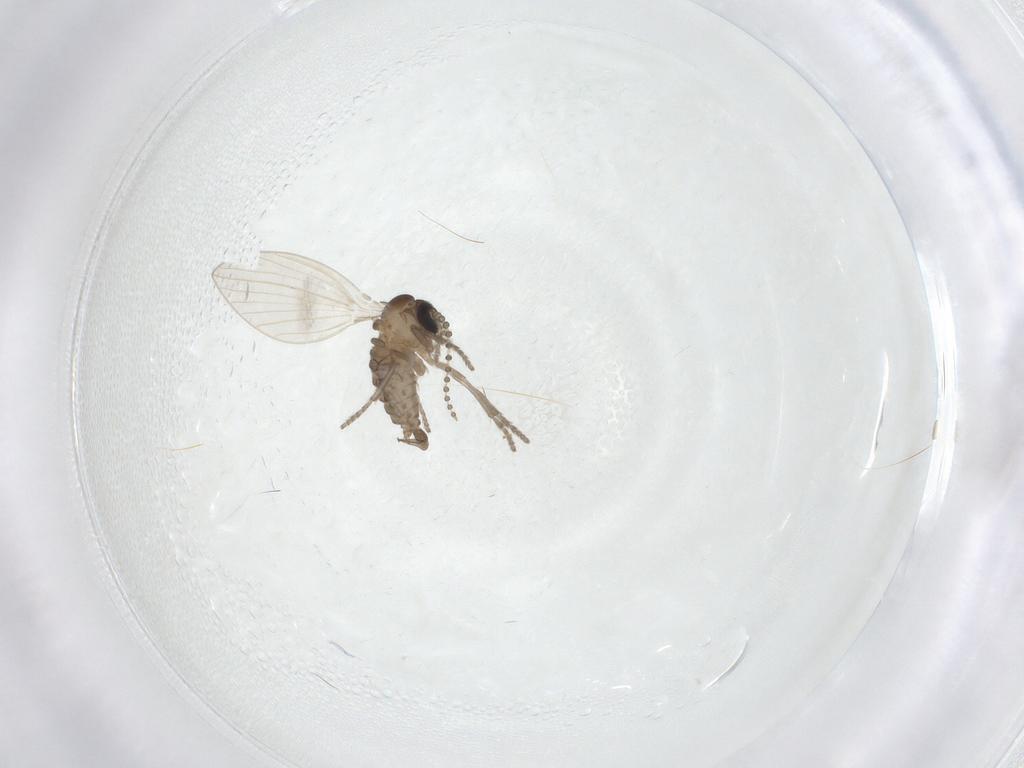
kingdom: Animalia
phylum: Arthropoda
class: Insecta
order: Diptera
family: Psychodidae
